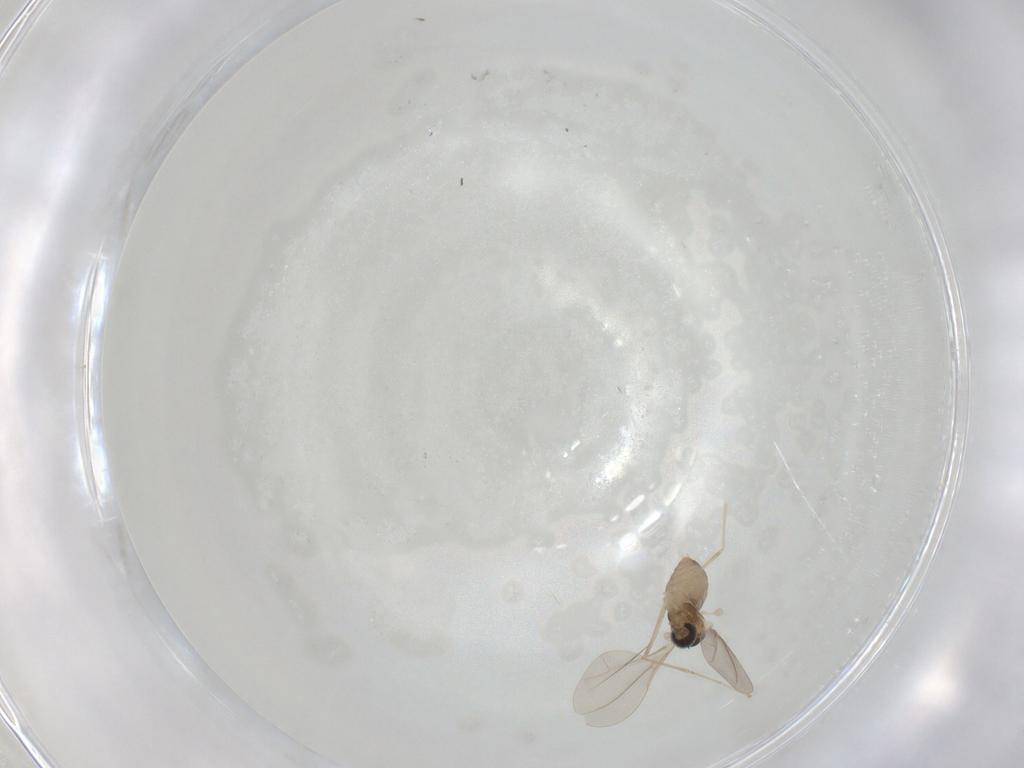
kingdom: Animalia
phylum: Arthropoda
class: Insecta
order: Diptera
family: Cecidomyiidae
